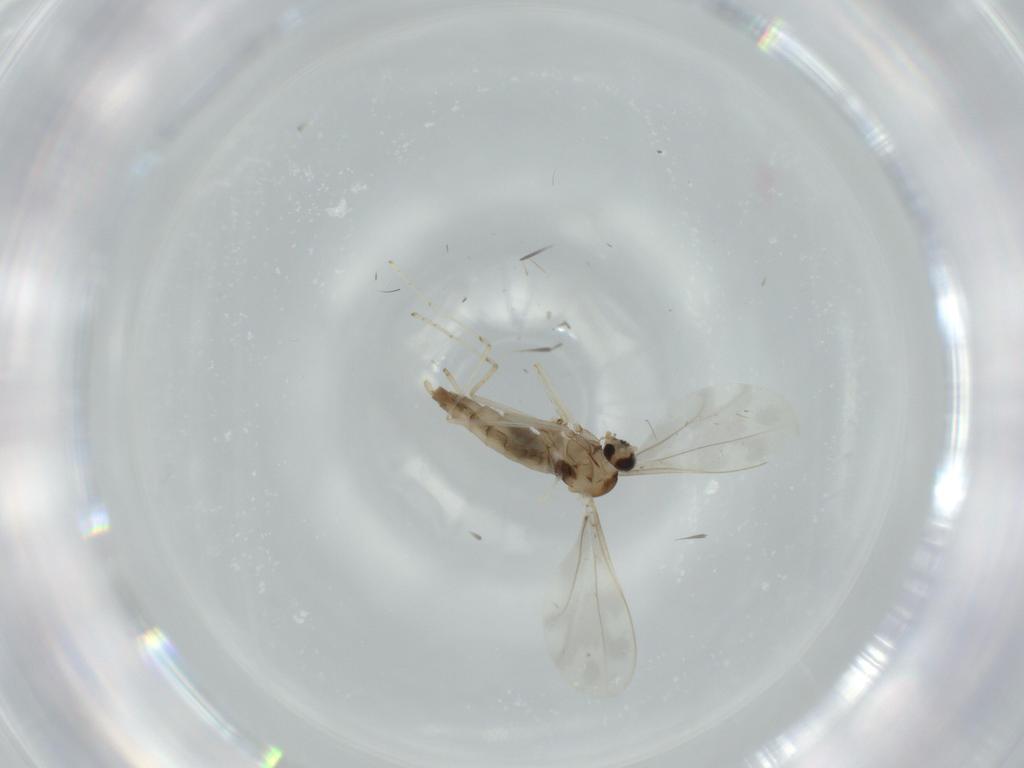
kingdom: Animalia
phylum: Arthropoda
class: Insecta
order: Diptera
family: Cecidomyiidae
